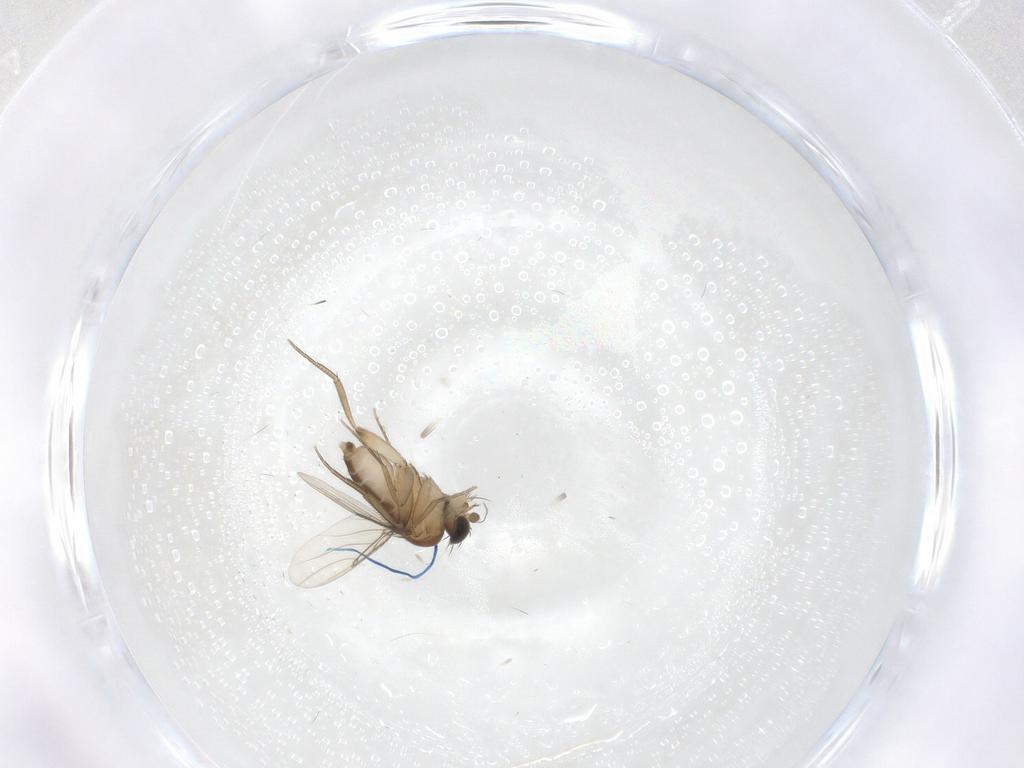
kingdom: Animalia
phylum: Arthropoda
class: Insecta
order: Diptera
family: Phoridae
